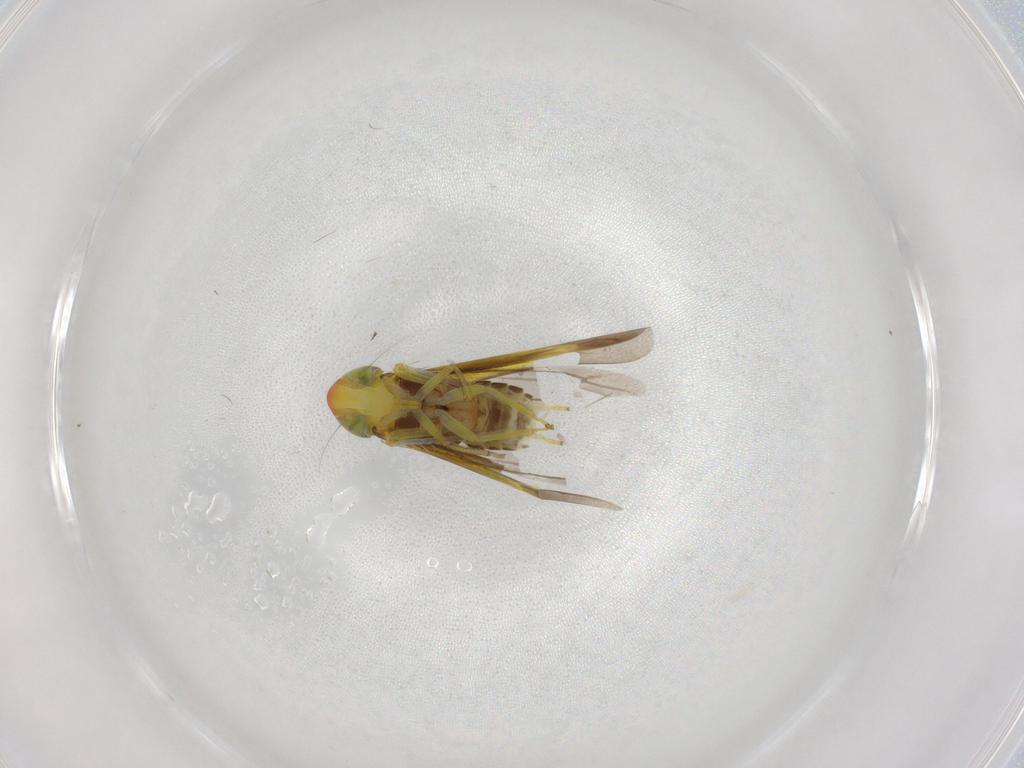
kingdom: Animalia
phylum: Arthropoda
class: Insecta
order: Hemiptera
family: Cicadellidae
